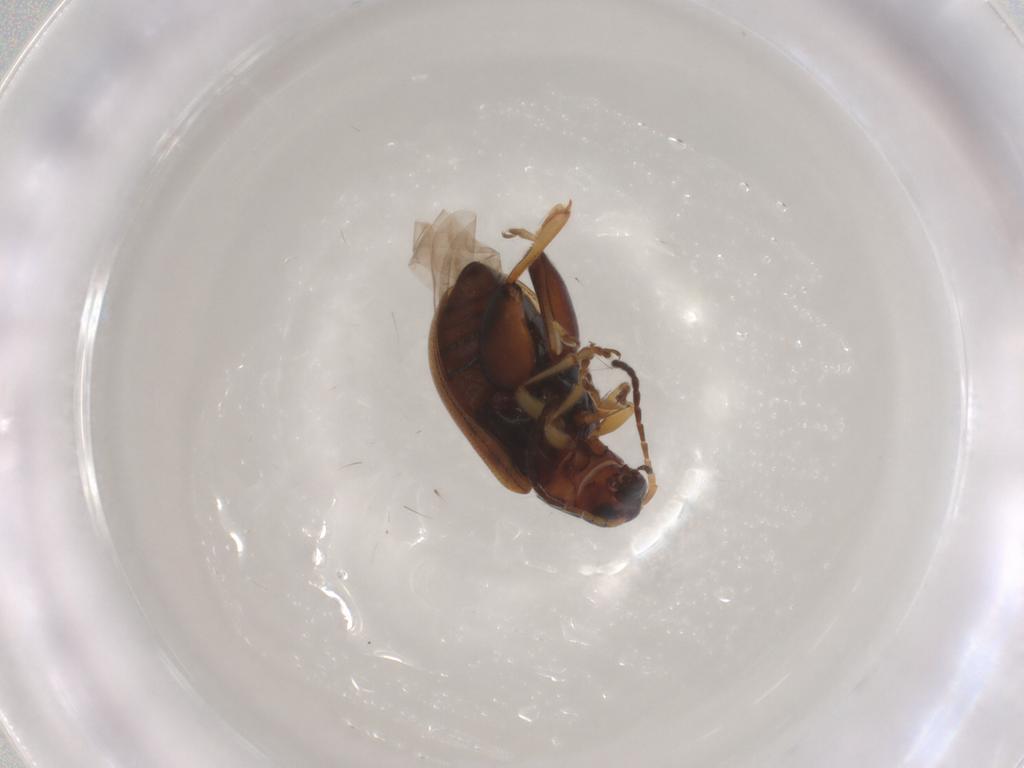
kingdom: Animalia
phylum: Arthropoda
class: Insecta
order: Coleoptera
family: Chrysomelidae
